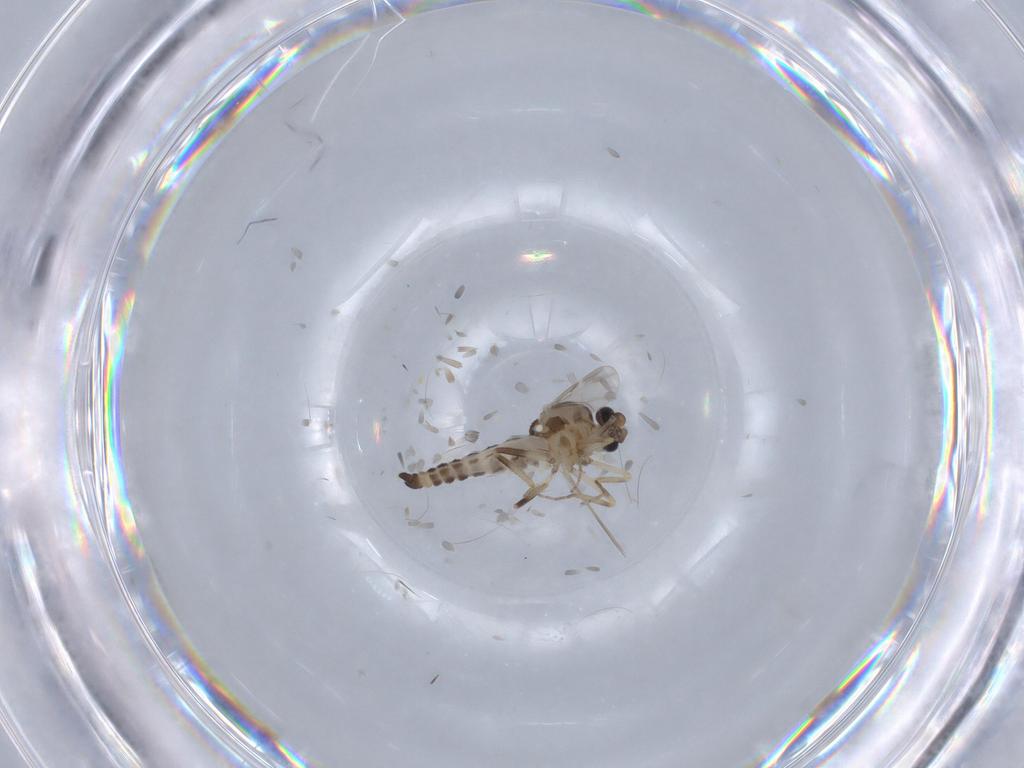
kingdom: Animalia
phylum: Arthropoda
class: Insecta
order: Diptera
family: Ceratopogonidae
